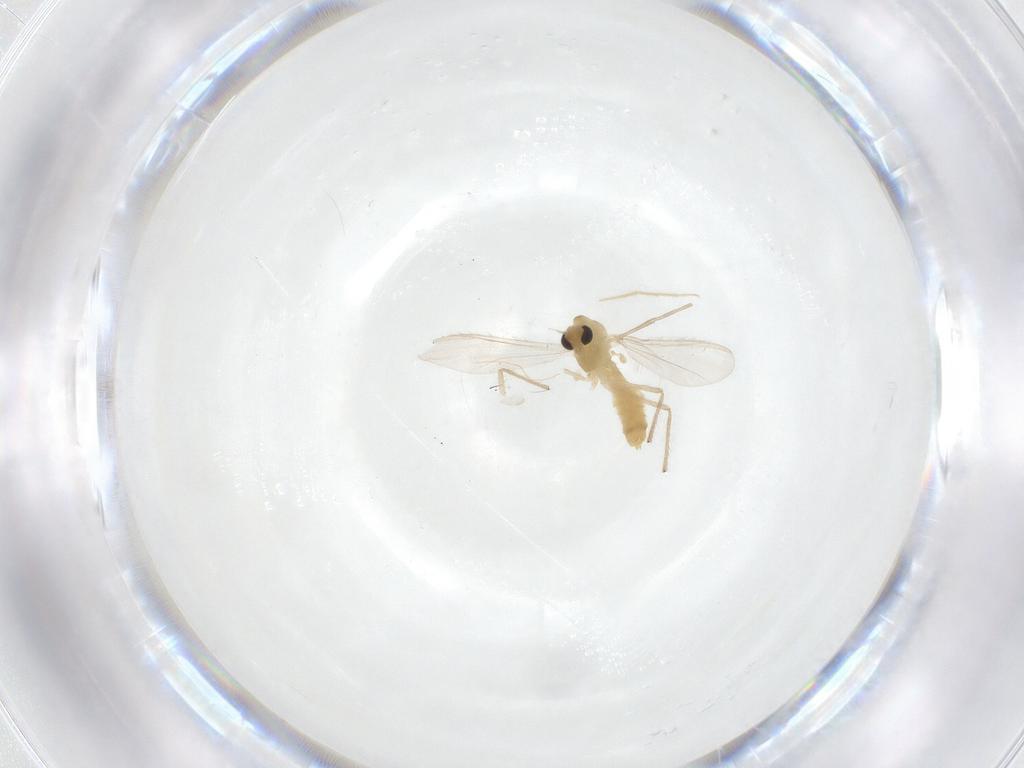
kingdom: Animalia
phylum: Arthropoda
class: Insecta
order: Diptera
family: Chironomidae
